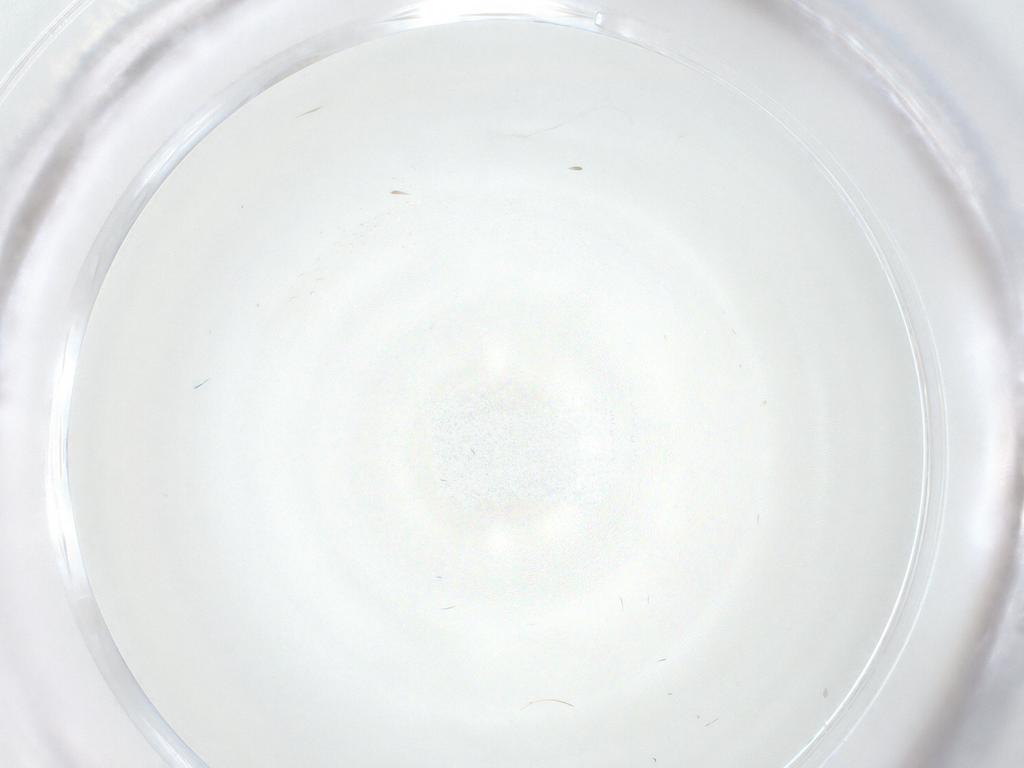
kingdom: Animalia
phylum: Arthropoda
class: Insecta
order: Diptera
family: Cecidomyiidae
